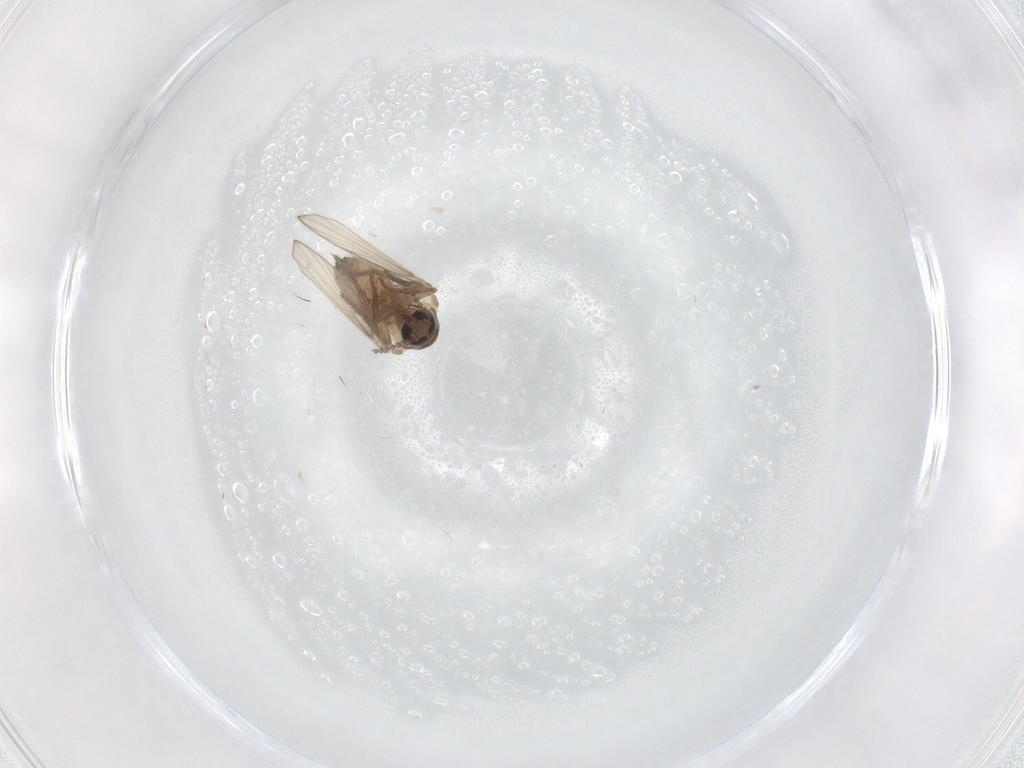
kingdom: Animalia
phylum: Arthropoda
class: Insecta
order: Diptera
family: Psychodidae
